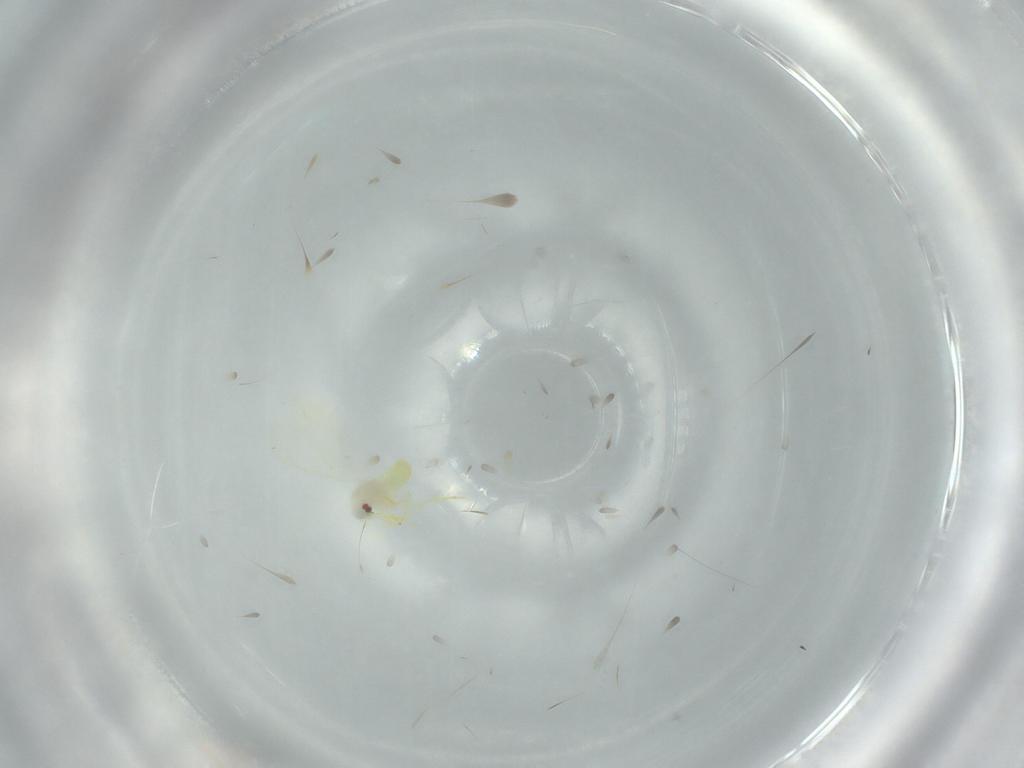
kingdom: Animalia
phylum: Arthropoda
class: Insecta
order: Hemiptera
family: Aleyrodidae
